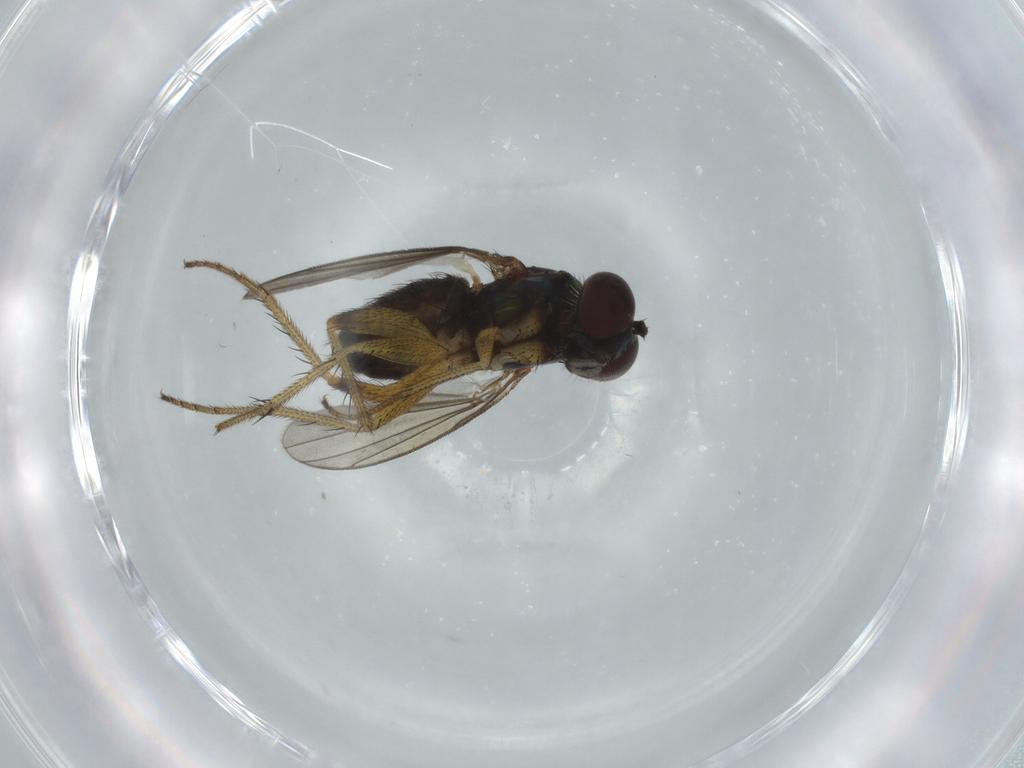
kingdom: Animalia
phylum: Arthropoda
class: Insecta
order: Diptera
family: Dolichopodidae
